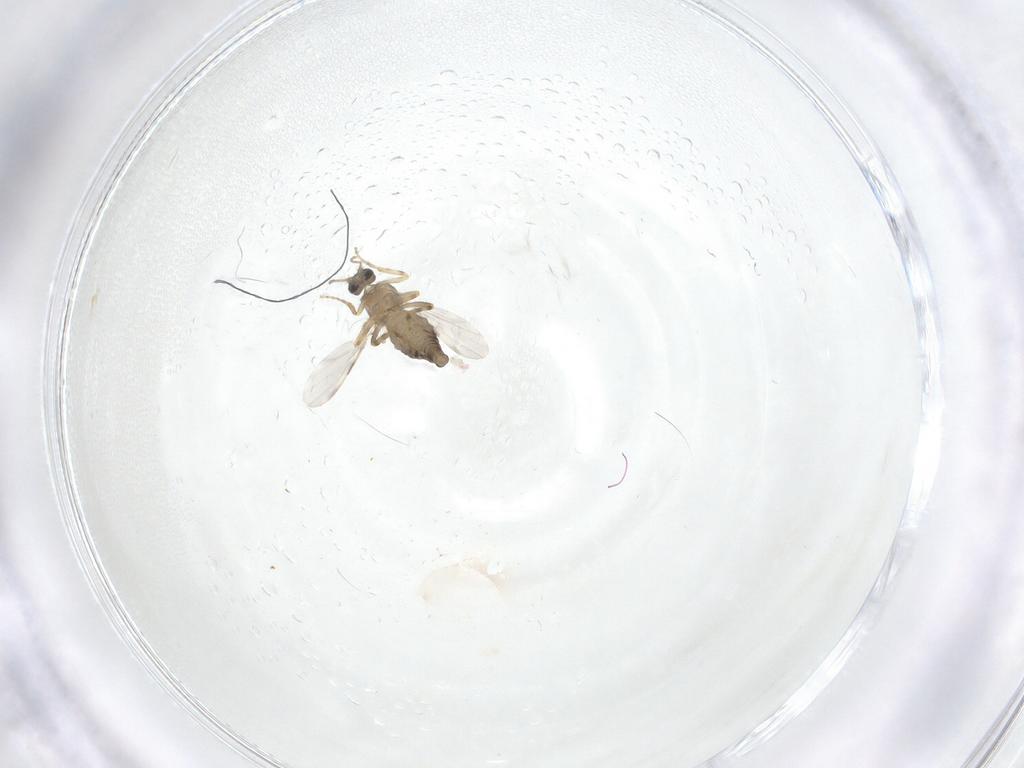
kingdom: Animalia
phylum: Arthropoda
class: Insecta
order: Diptera
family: Ceratopogonidae
